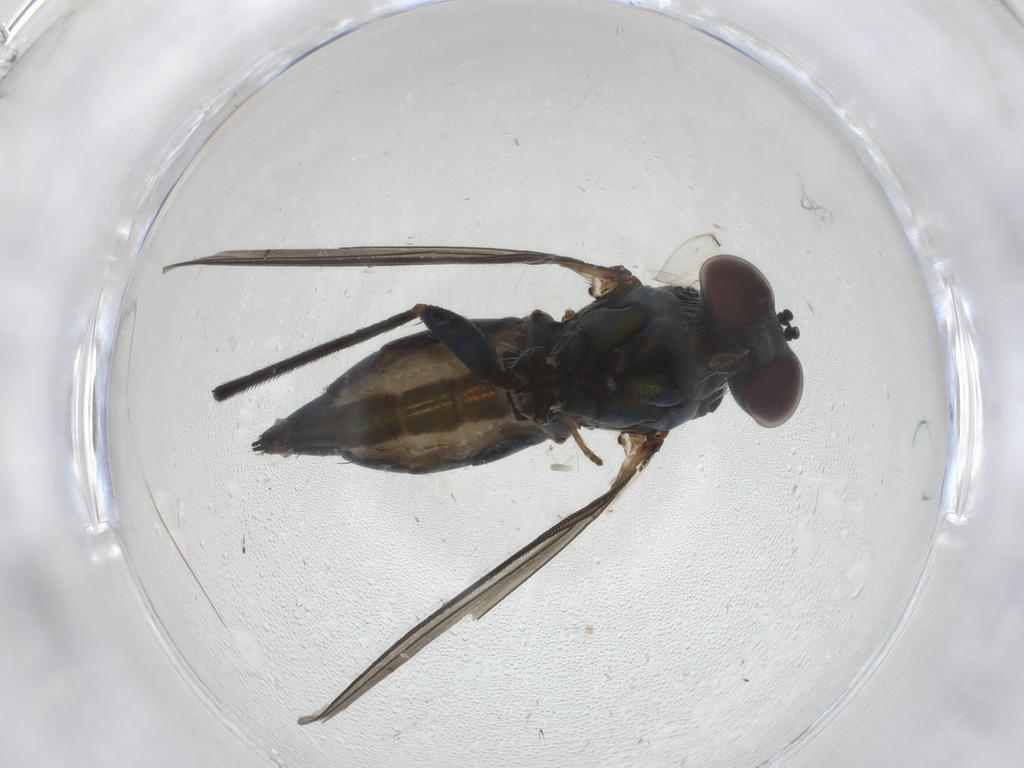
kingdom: Animalia
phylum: Arthropoda
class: Insecta
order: Diptera
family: Dolichopodidae
